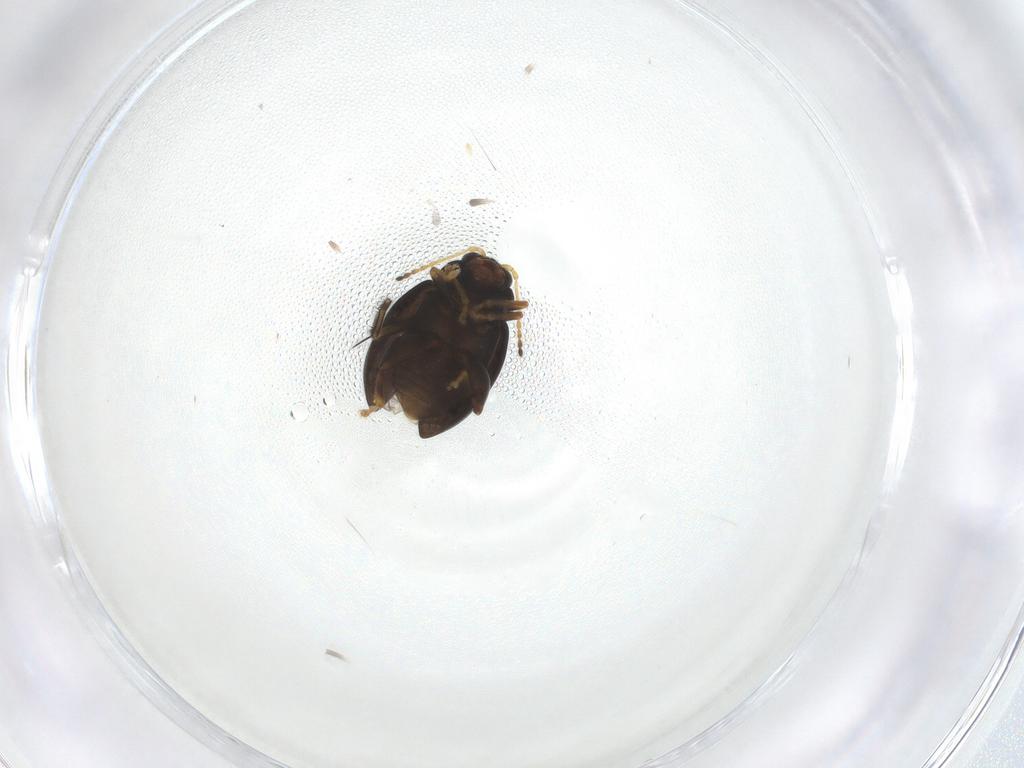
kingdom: Animalia
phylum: Arthropoda
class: Insecta
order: Coleoptera
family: Chrysomelidae
